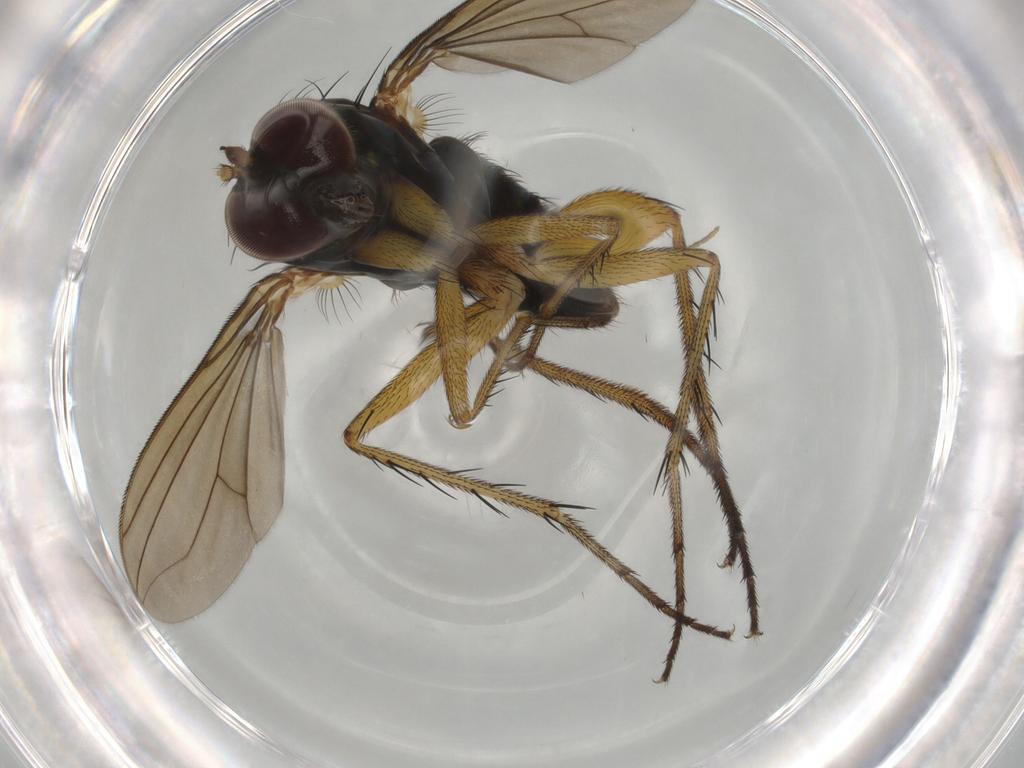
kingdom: Animalia
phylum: Arthropoda
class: Insecta
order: Diptera
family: Dolichopodidae
